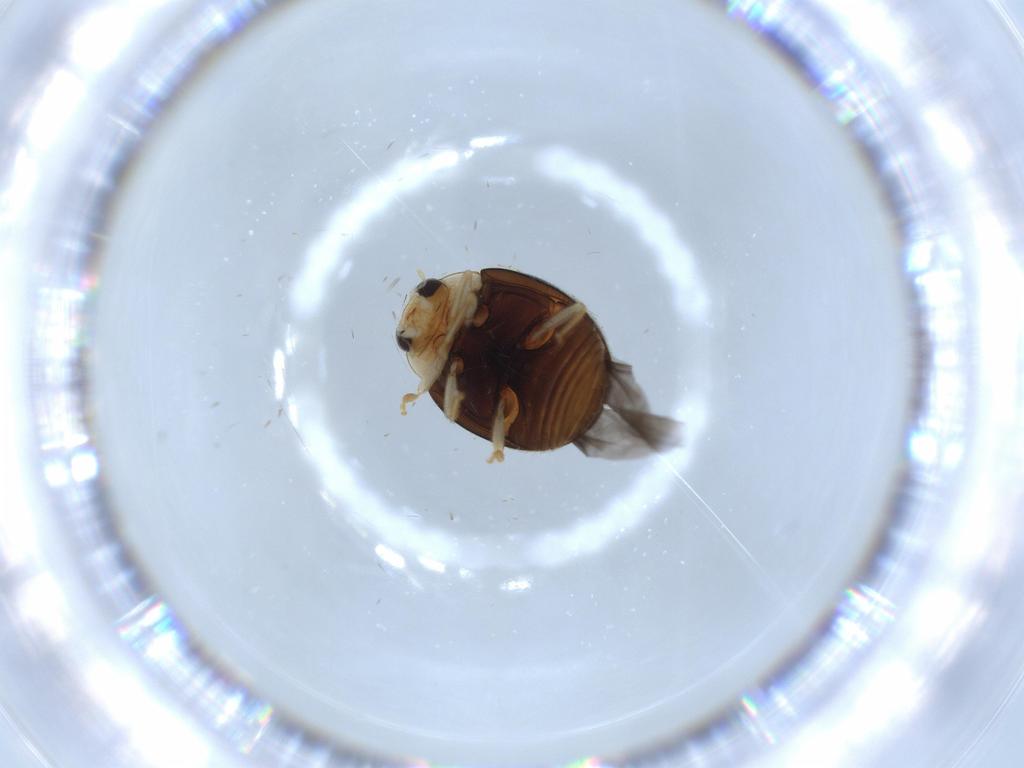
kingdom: Animalia
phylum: Arthropoda
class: Insecta
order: Coleoptera
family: Coccinellidae
